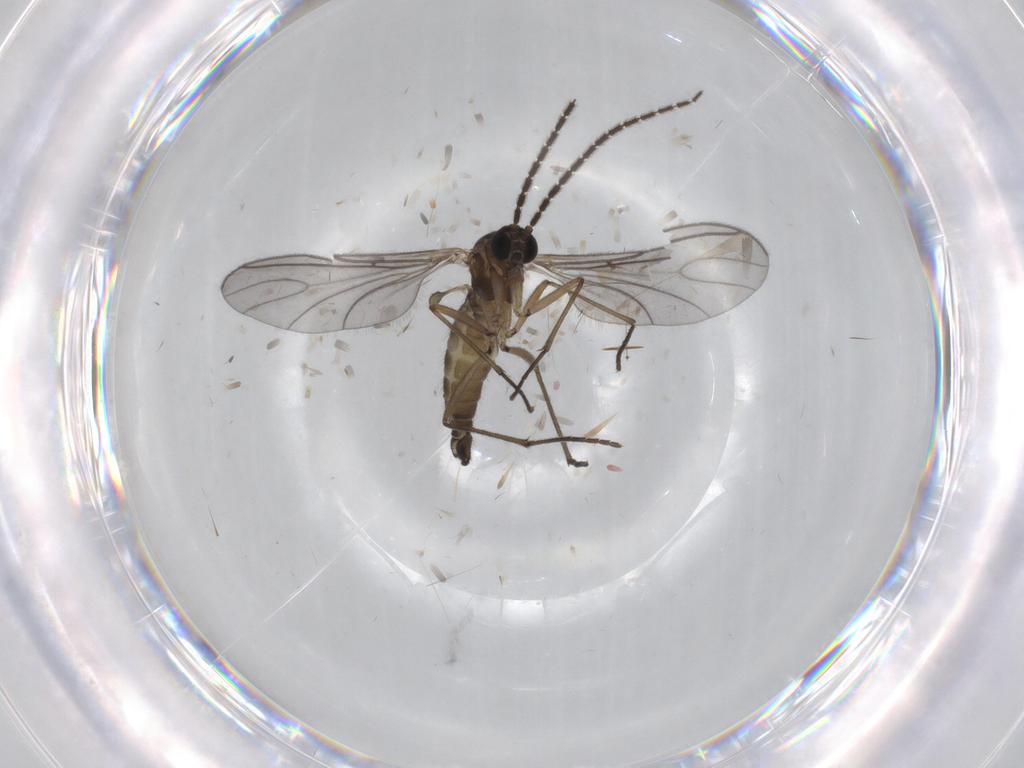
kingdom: Animalia
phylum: Arthropoda
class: Insecta
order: Diptera
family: Sciaridae
